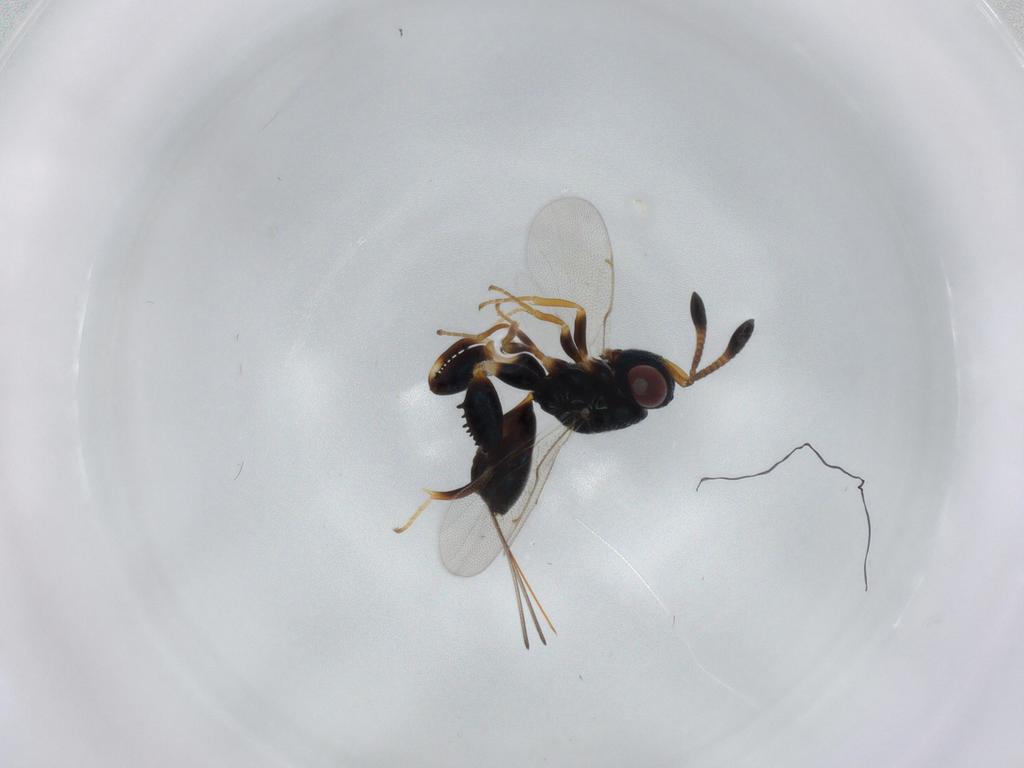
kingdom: Animalia
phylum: Arthropoda
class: Insecta
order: Hymenoptera
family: Torymidae
